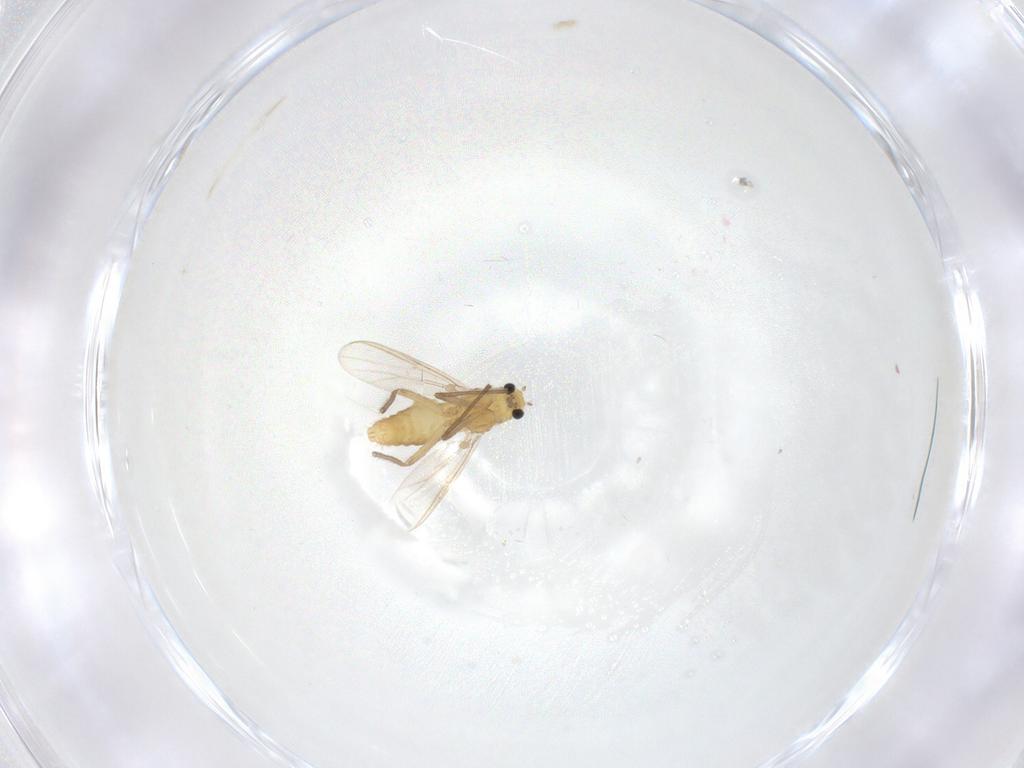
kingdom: Animalia
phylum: Arthropoda
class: Insecta
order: Diptera
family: Chironomidae
